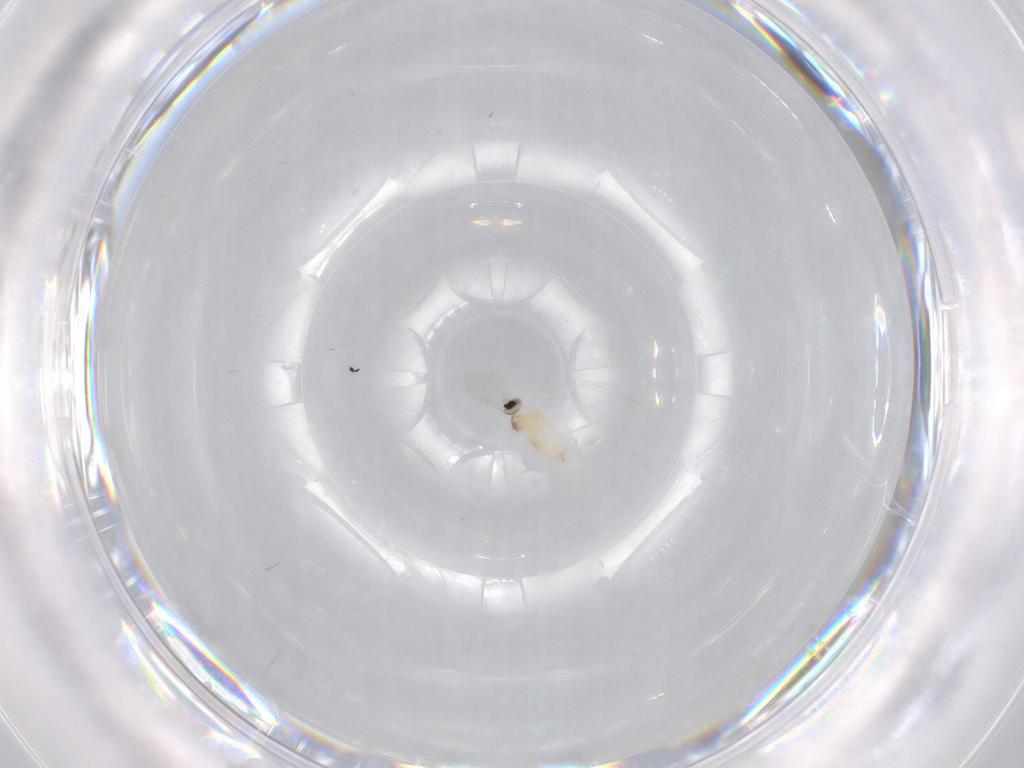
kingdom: Animalia
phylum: Arthropoda
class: Insecta
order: Diptera
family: Cecidomyiidae
